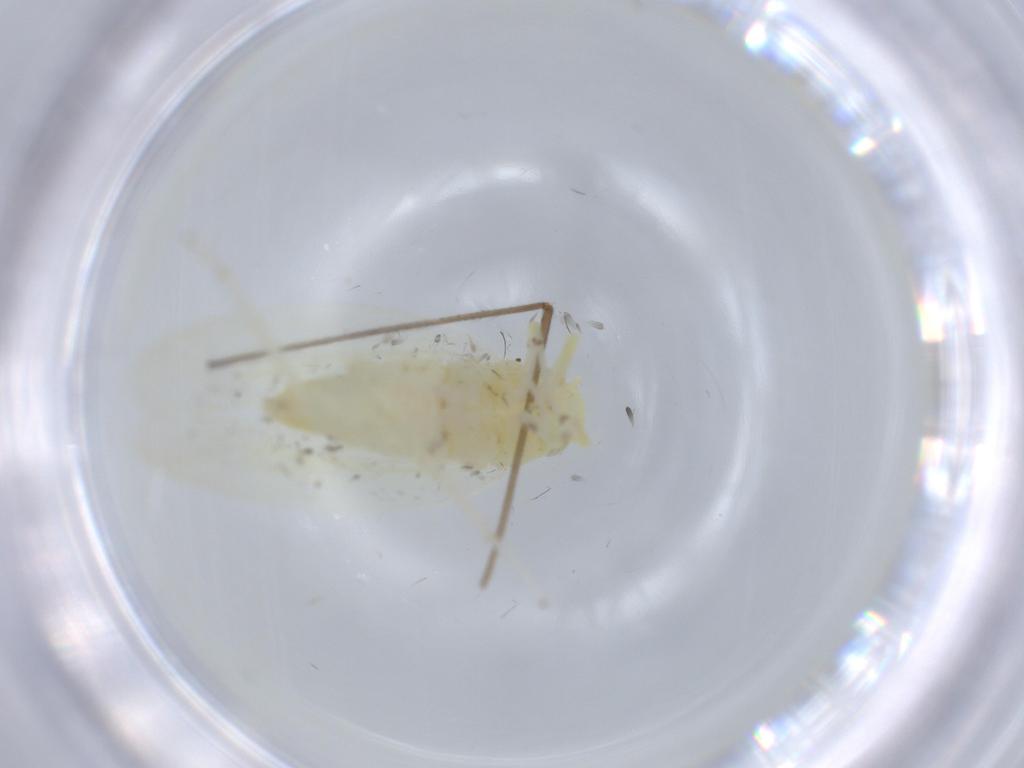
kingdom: Animalia
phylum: Arthropoda
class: Insecta
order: Hemiptera
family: Cicadellidae
